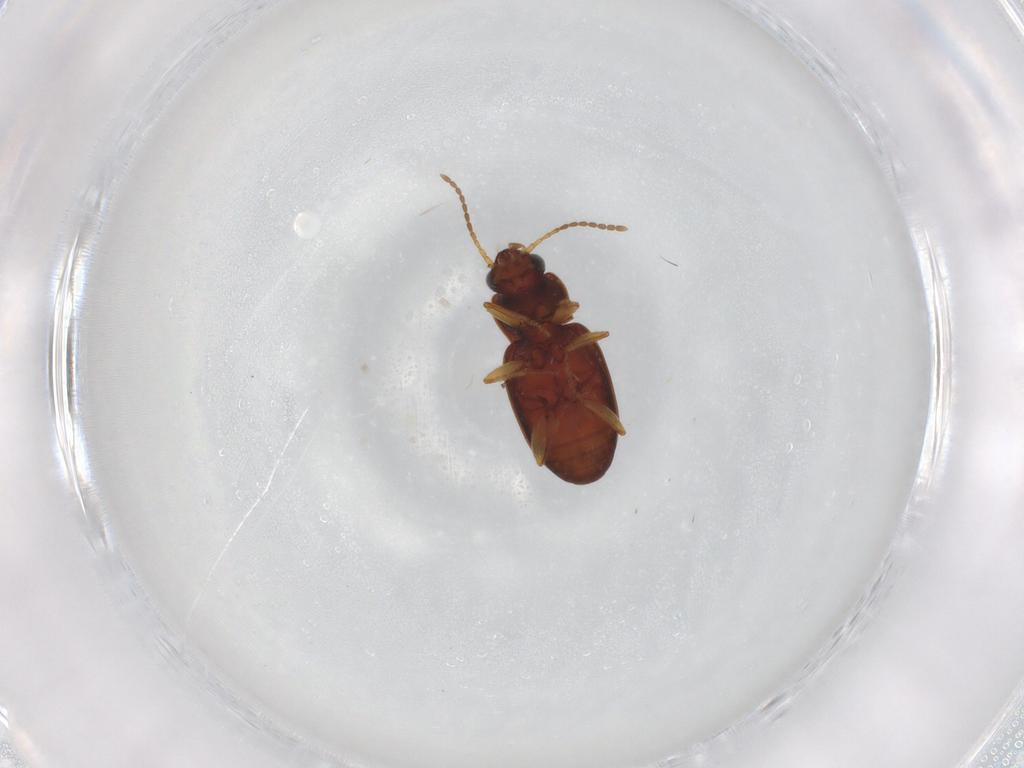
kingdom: Animalia
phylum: Arthropoda
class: Insecta
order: Coleoptera
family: Carabidae
